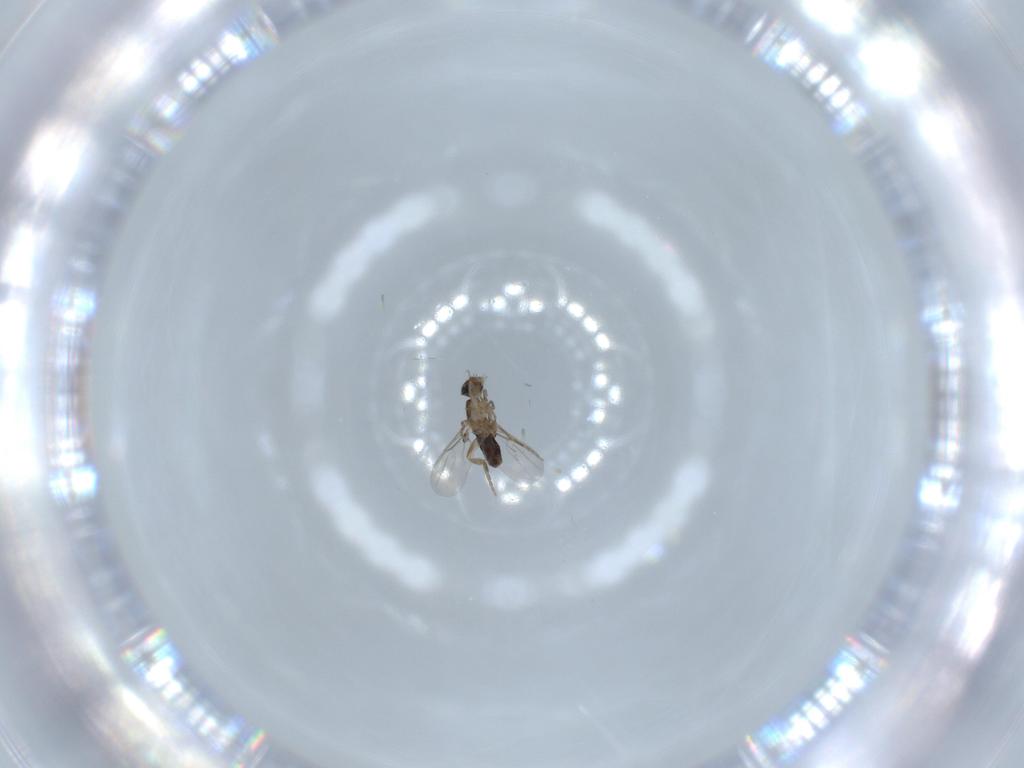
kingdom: Animalia
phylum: Arthropoda
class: Insecta
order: Diptera
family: Phoridae
